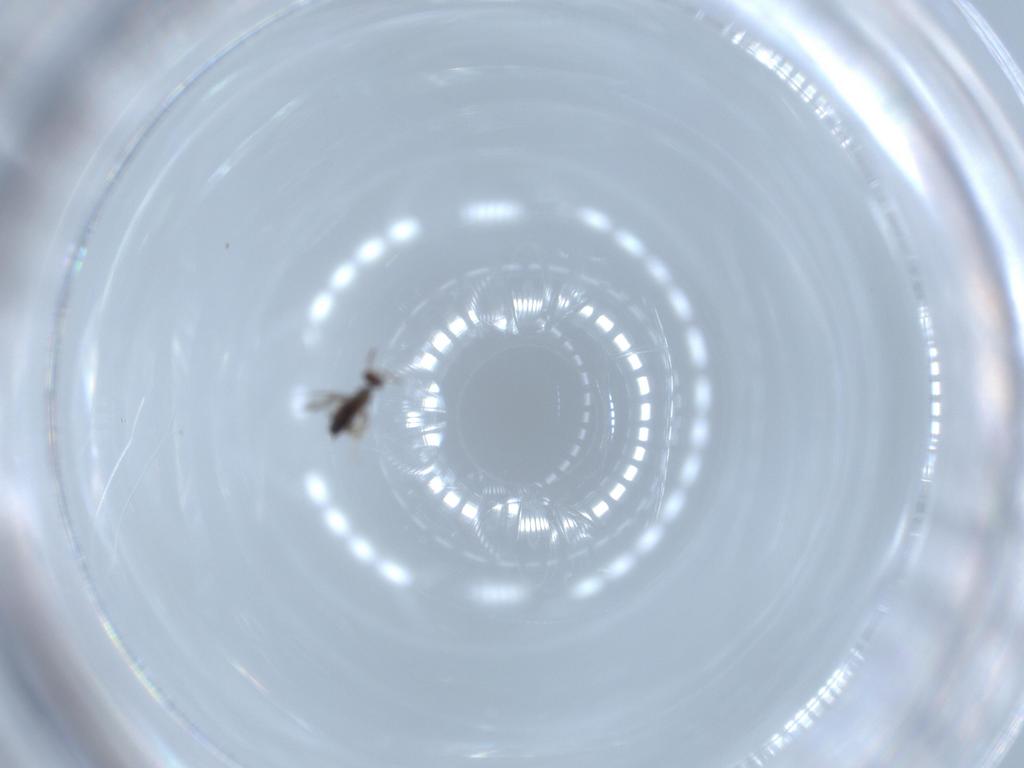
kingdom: Animalia
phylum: Arthropoda
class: Insecta
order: Hymenoptera
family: Signiphoridae
